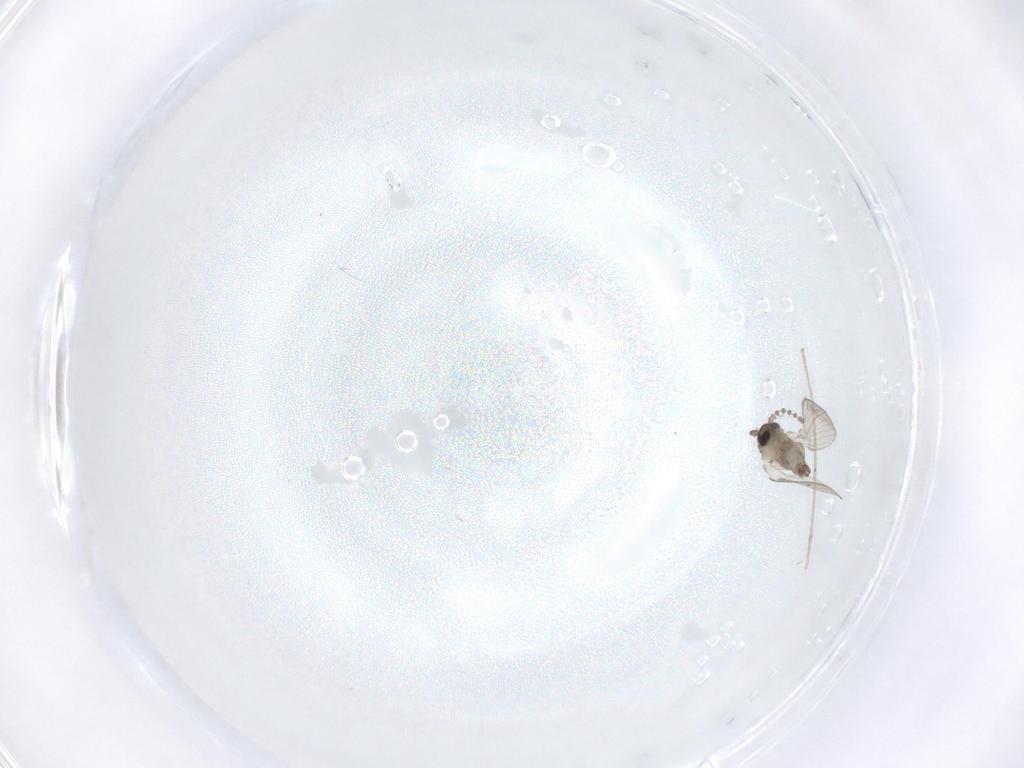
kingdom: Animalia
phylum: Arthropoda
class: Insecta
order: Diptera
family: Psychodidae
